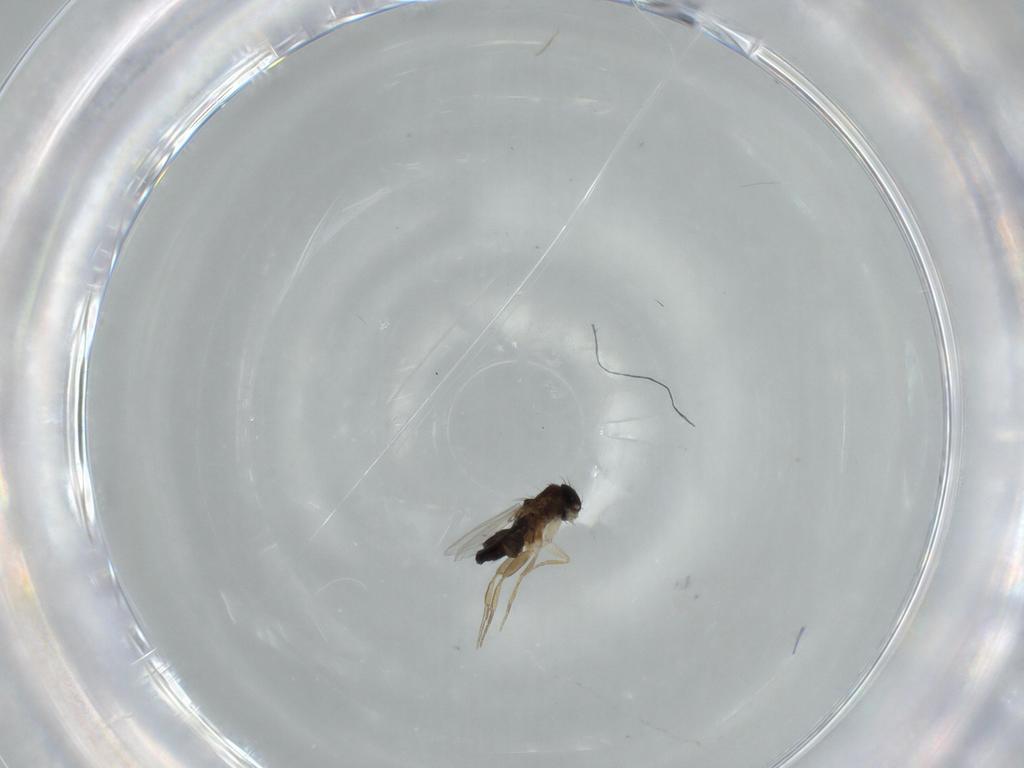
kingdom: Animalia
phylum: Arthropoda
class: Insecta
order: Diptera
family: Phoridae
